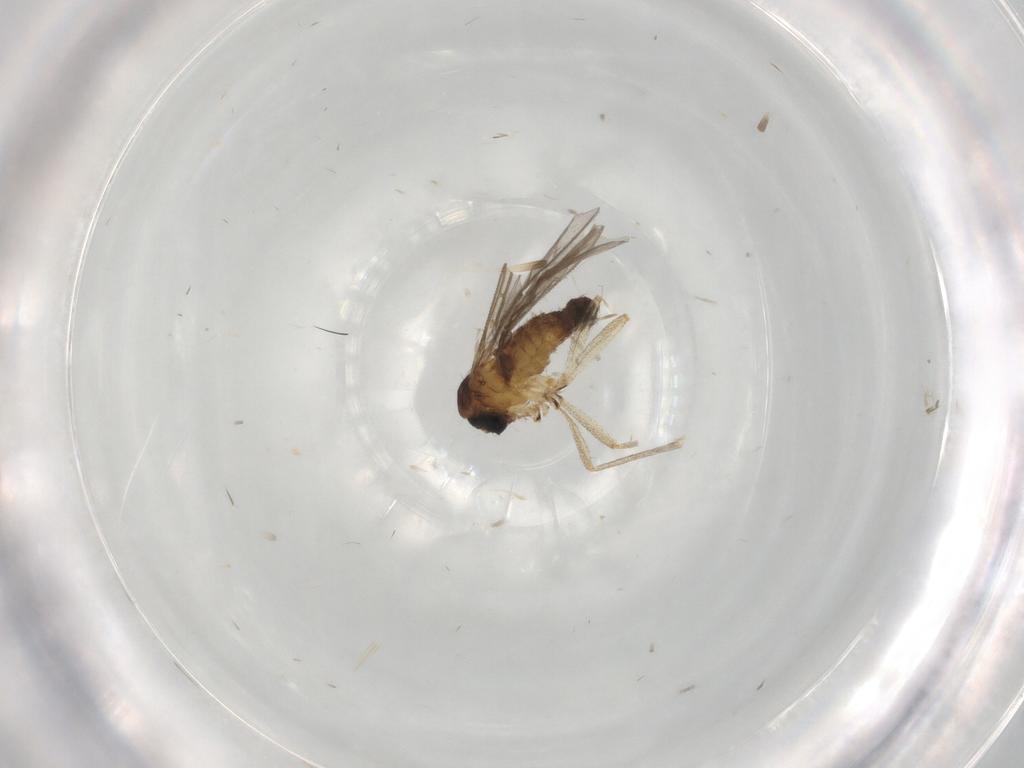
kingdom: Animalia
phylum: Arthropoda
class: Insecta
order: Diptera
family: Sciaridae
